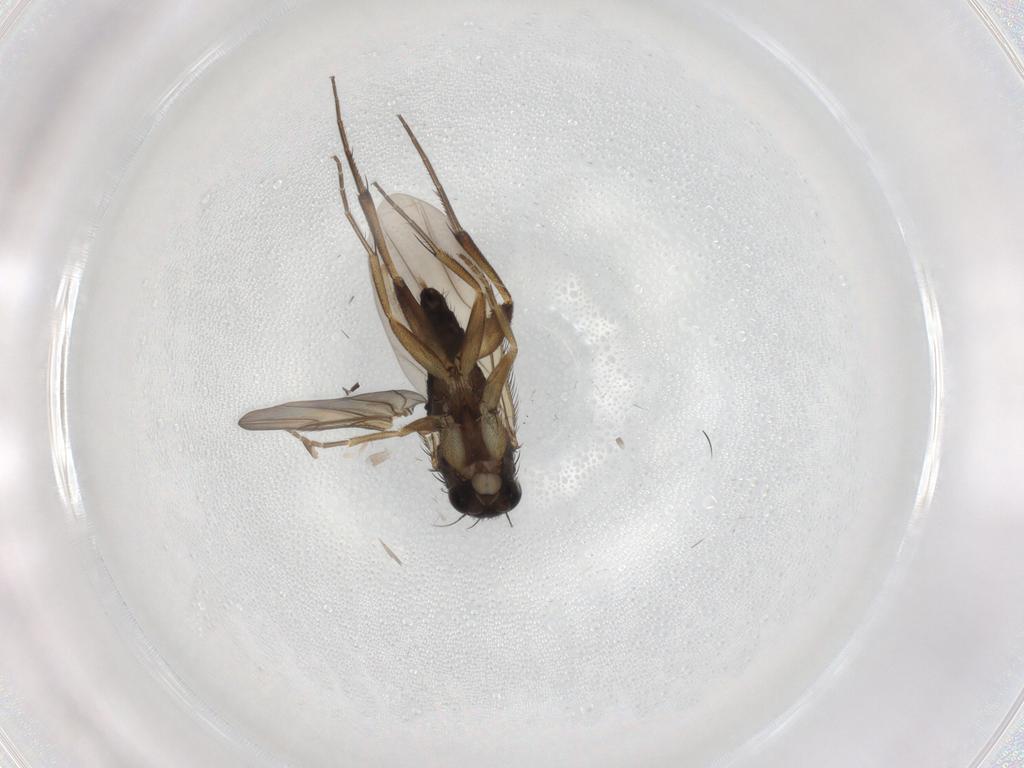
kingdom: Animalia
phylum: Arthropoda
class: Insecta
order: Diptera
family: Phoridae
